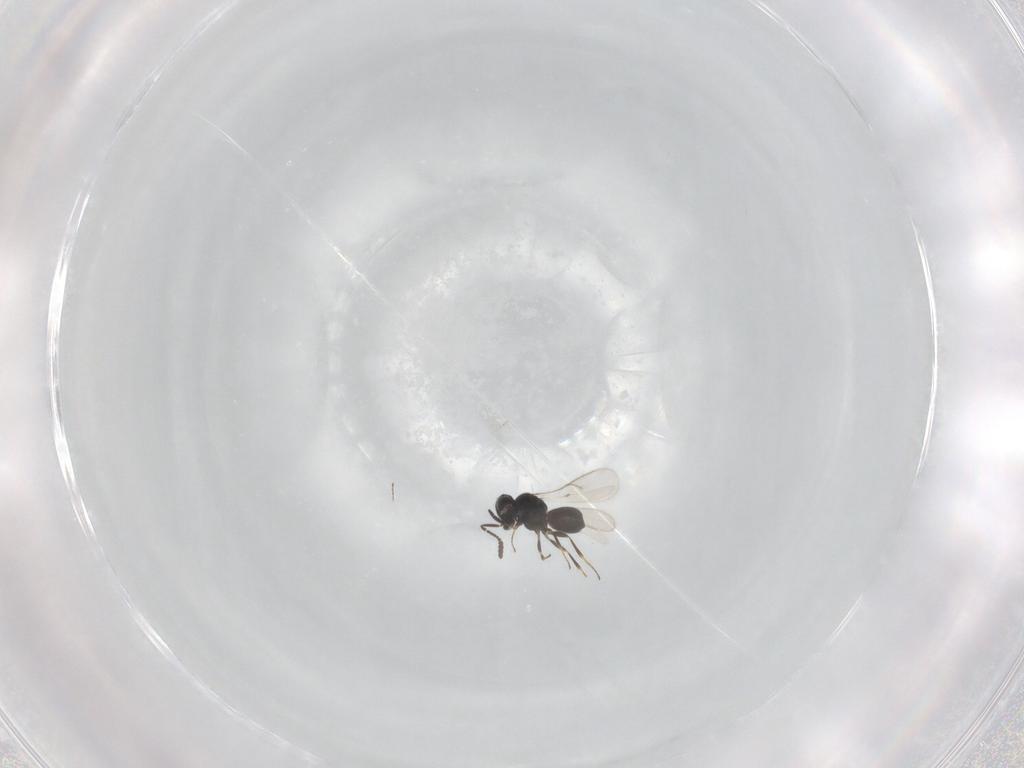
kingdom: Animalia
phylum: Arthropoda
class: Insecta
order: Hymenoptera
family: Scelionidae
